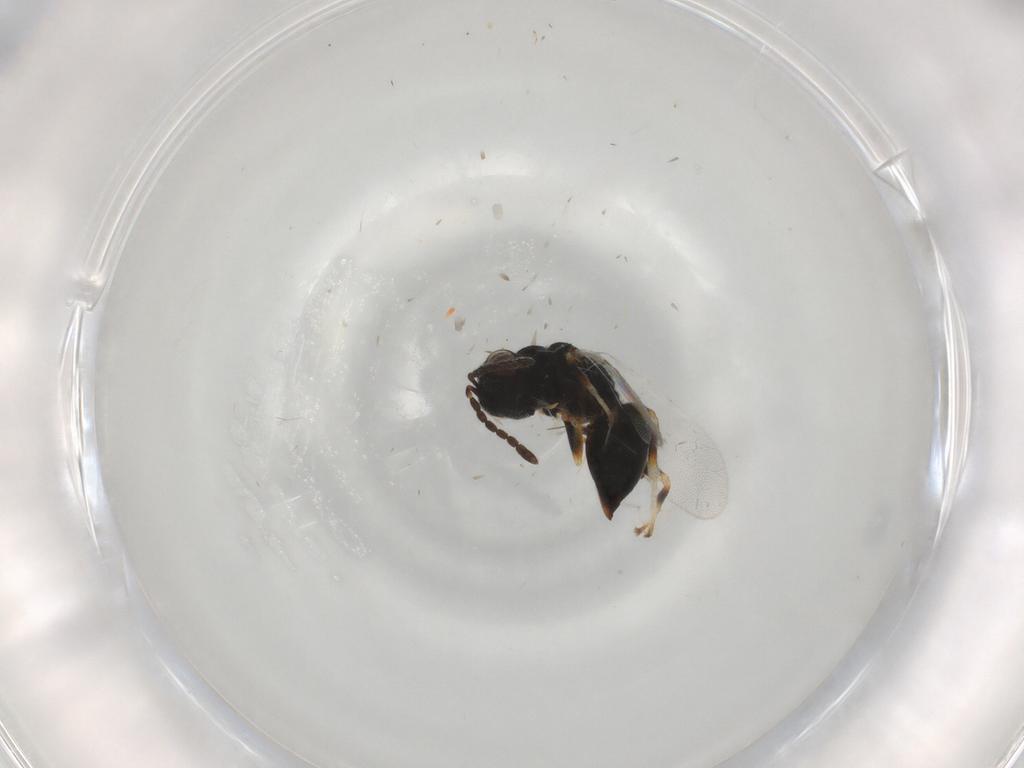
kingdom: Animalia
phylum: Arthropoda
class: Insecta
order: Hymenoptera
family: Eurytomidae
